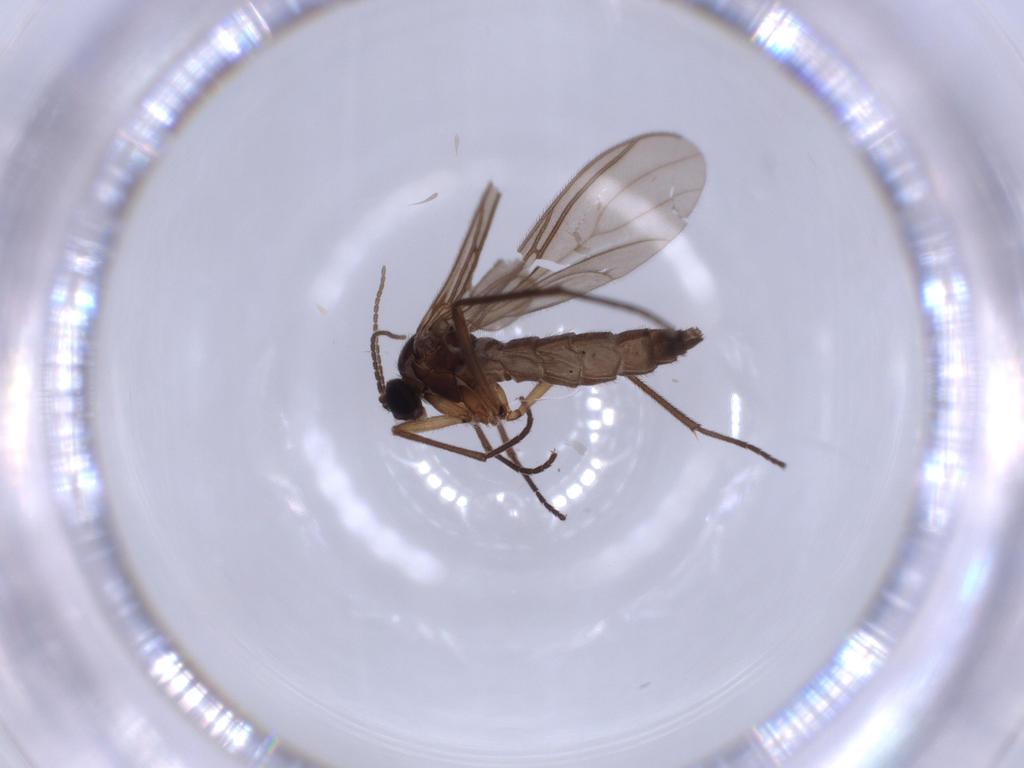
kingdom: Animalia
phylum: Arthropoda
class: Insecta
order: Diptera
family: Sciaridae
